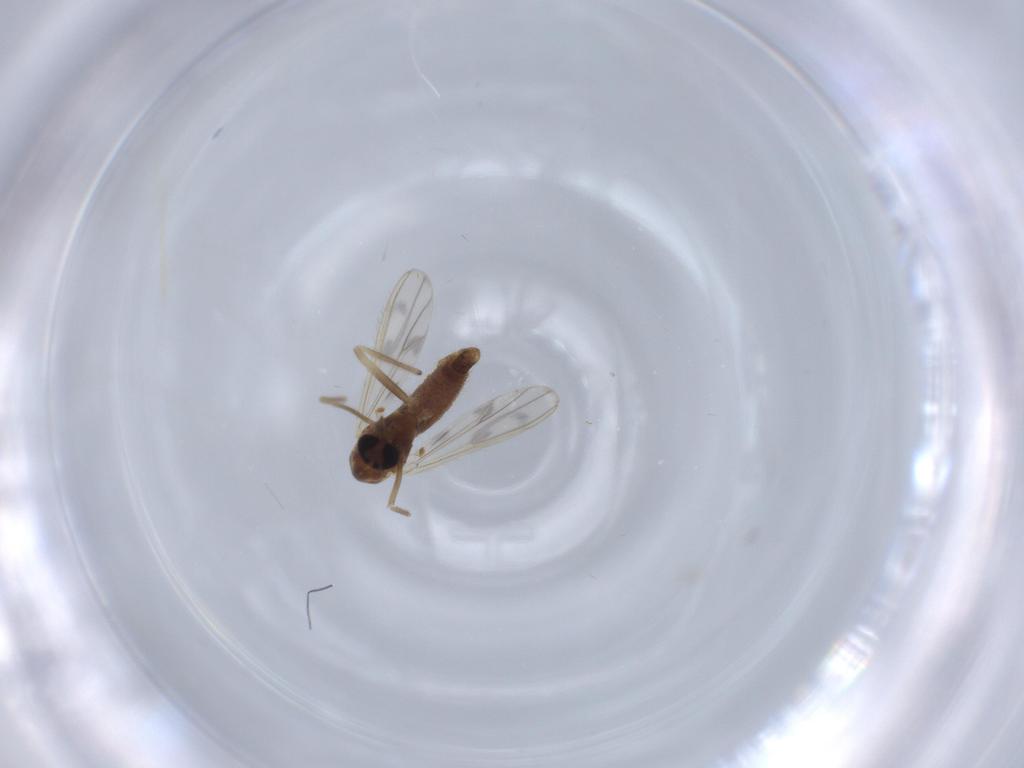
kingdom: Animalia
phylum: Arthropoda
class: Insecta
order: Diptera
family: Chironomidae
